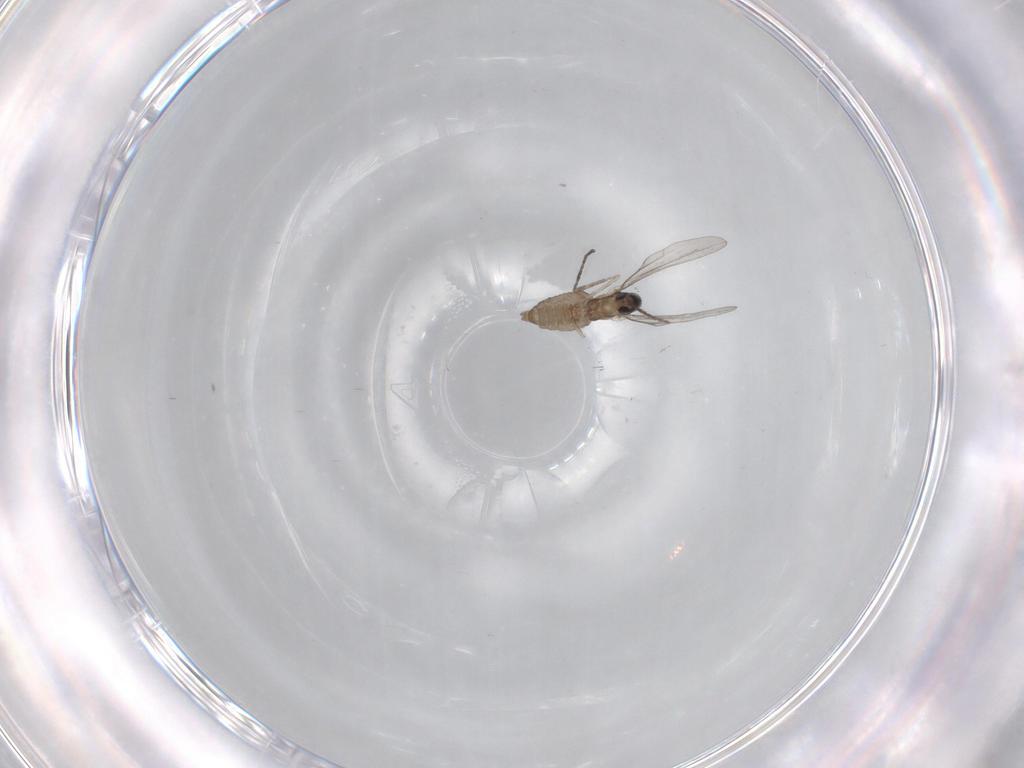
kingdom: Animalia
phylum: Arthropoda
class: Insecta
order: Diptera
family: Cecidomyiidae
